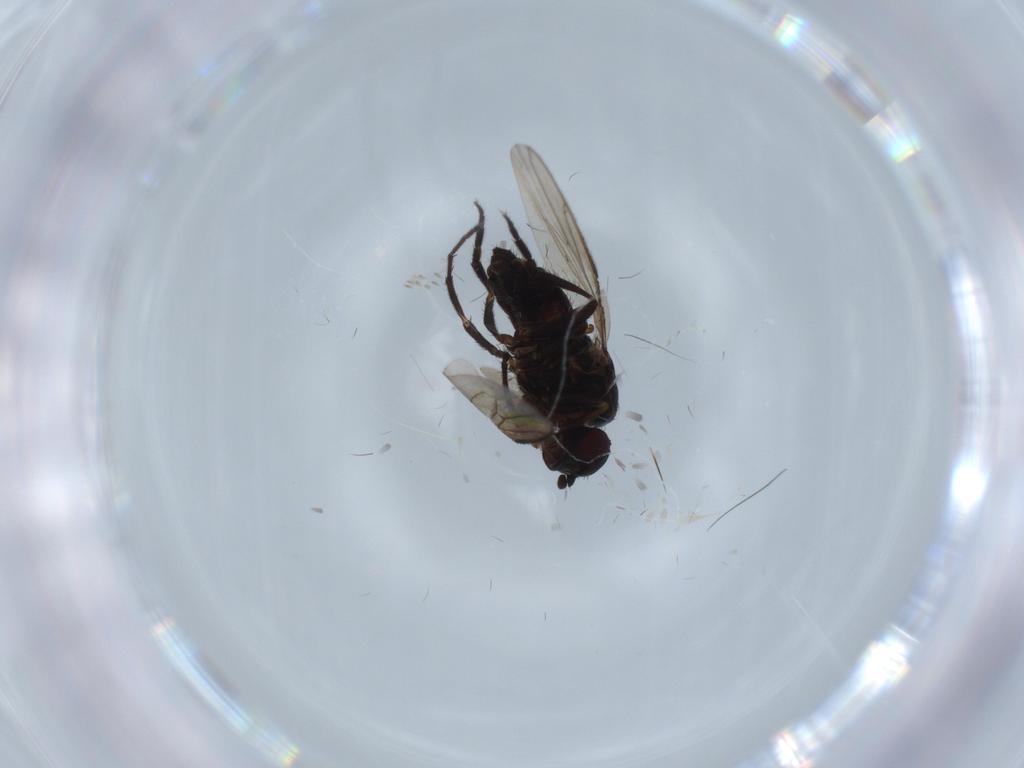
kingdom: Animalia
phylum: Arthropoda
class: Insecta
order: Diptera
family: Sphaeroceridae
